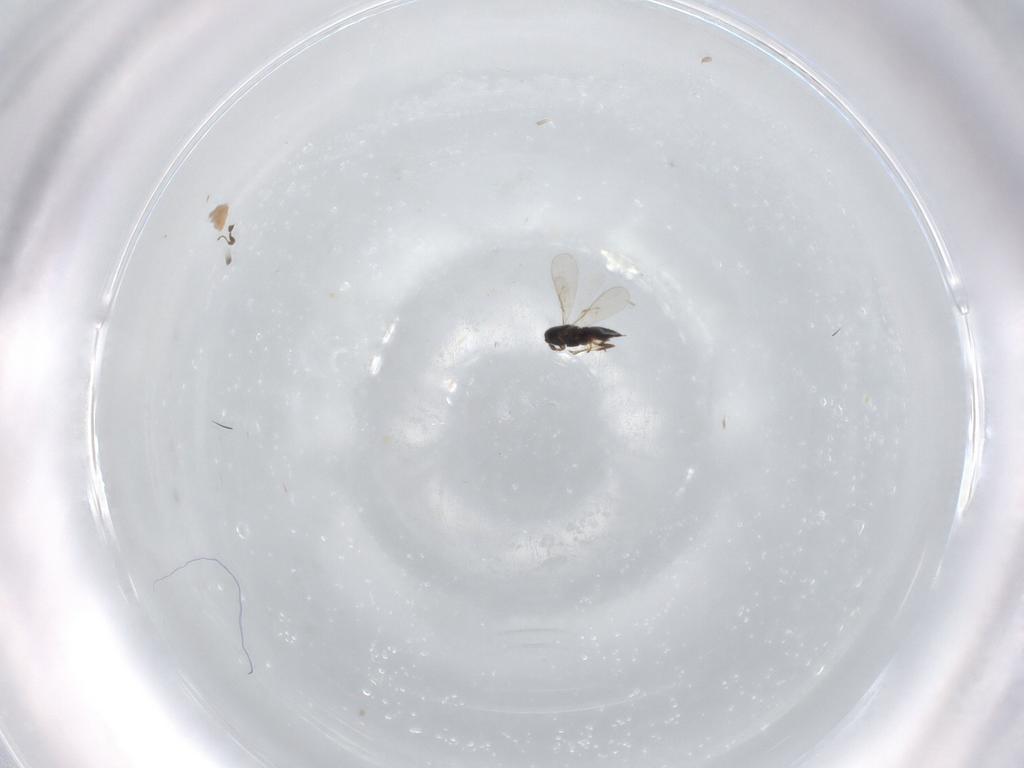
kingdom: Animalia
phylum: Arthropoda
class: Insecta
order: Hymenoptera
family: Scelionidae
